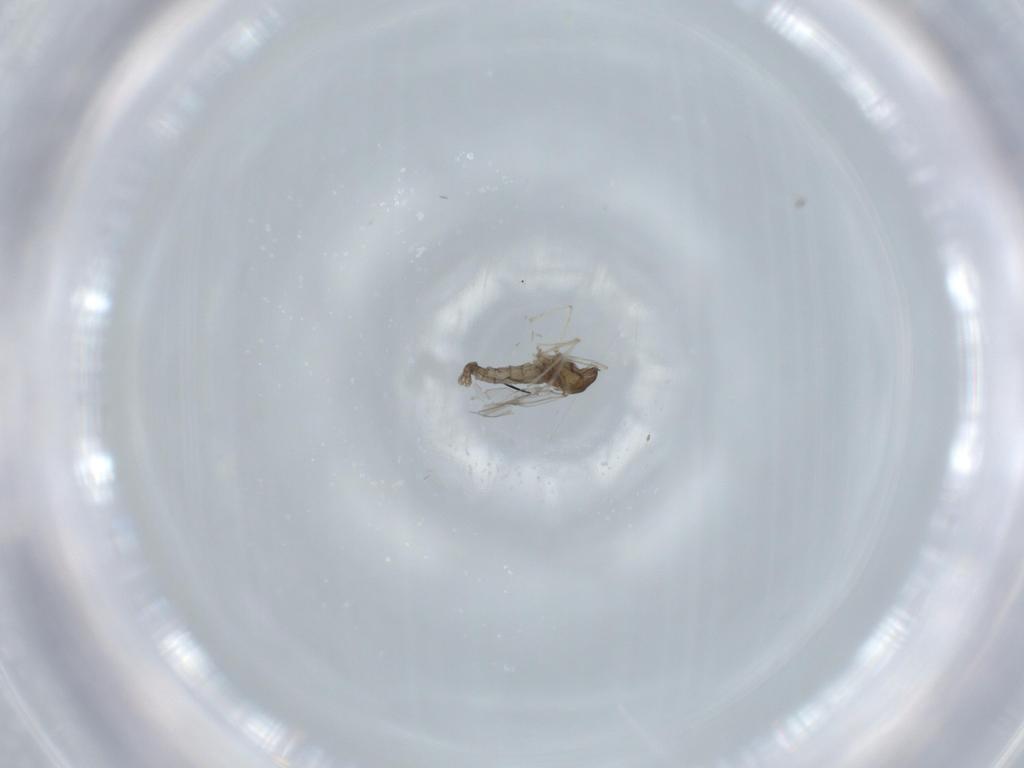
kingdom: Animalia
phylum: Arthropoda
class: Insecta
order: Diptera
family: Cecidomyiidae
